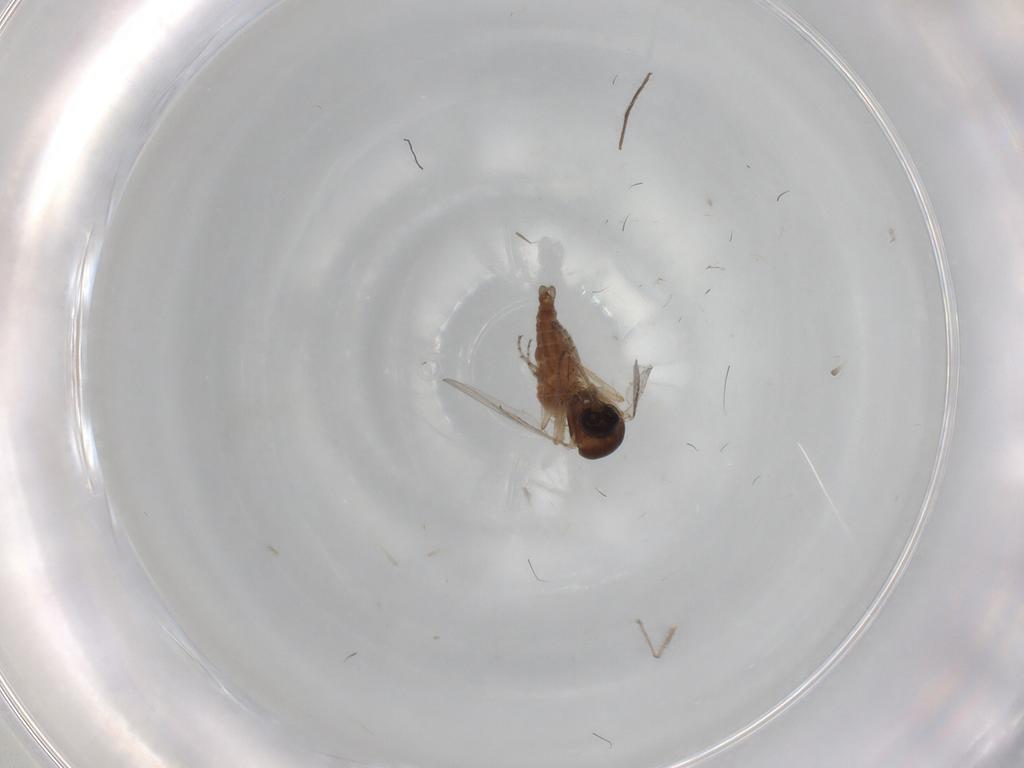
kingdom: Animalia
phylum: Arthropoda
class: Insecta
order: Diptera
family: Ceratopogonidae
